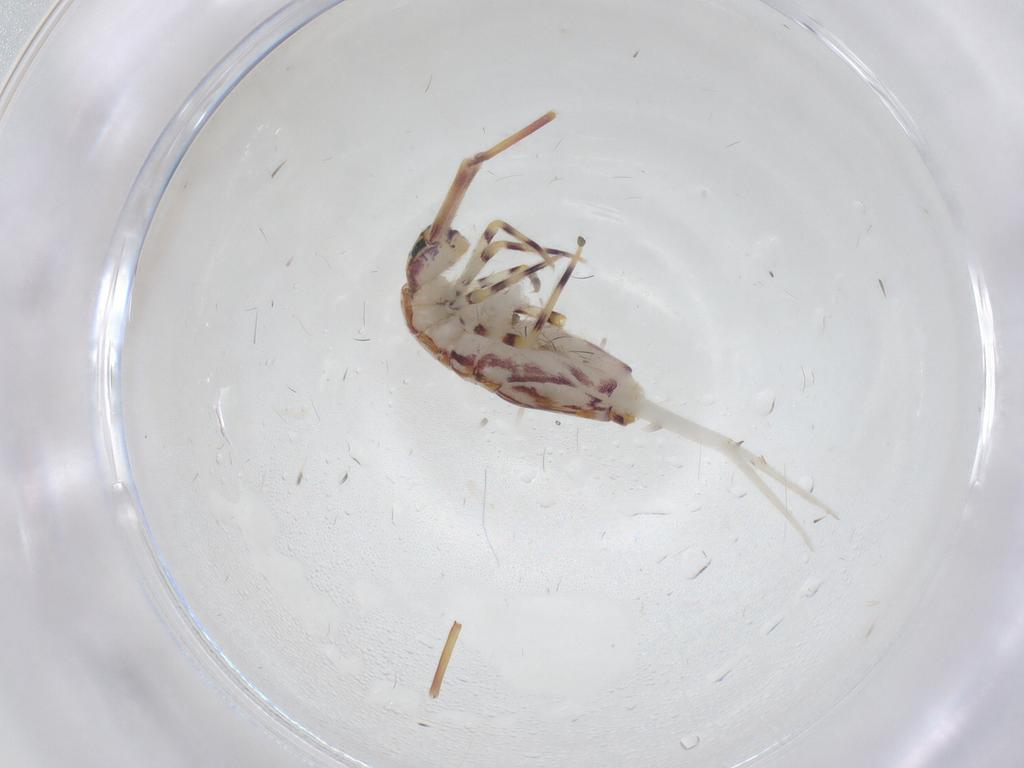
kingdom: Animalia
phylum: Arthropoda
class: Collembola
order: Entomobryomorpha
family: Entomobryidae
